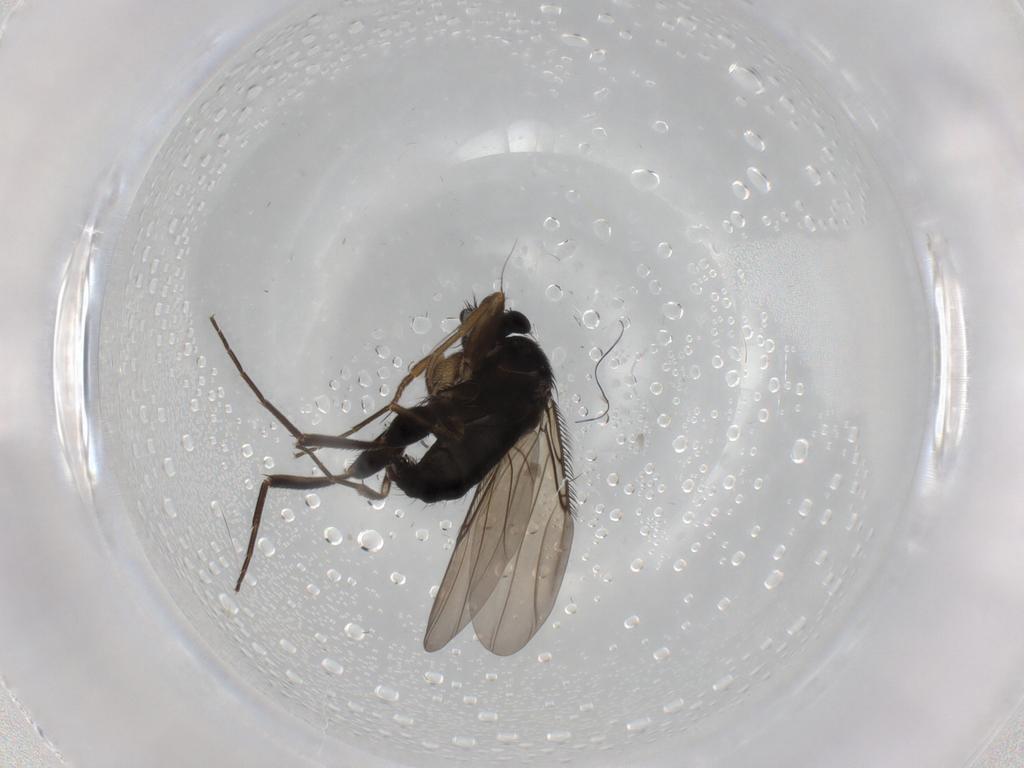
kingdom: Animalia
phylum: Arthropoda
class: Insecta
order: Diptera
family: Phoridae
